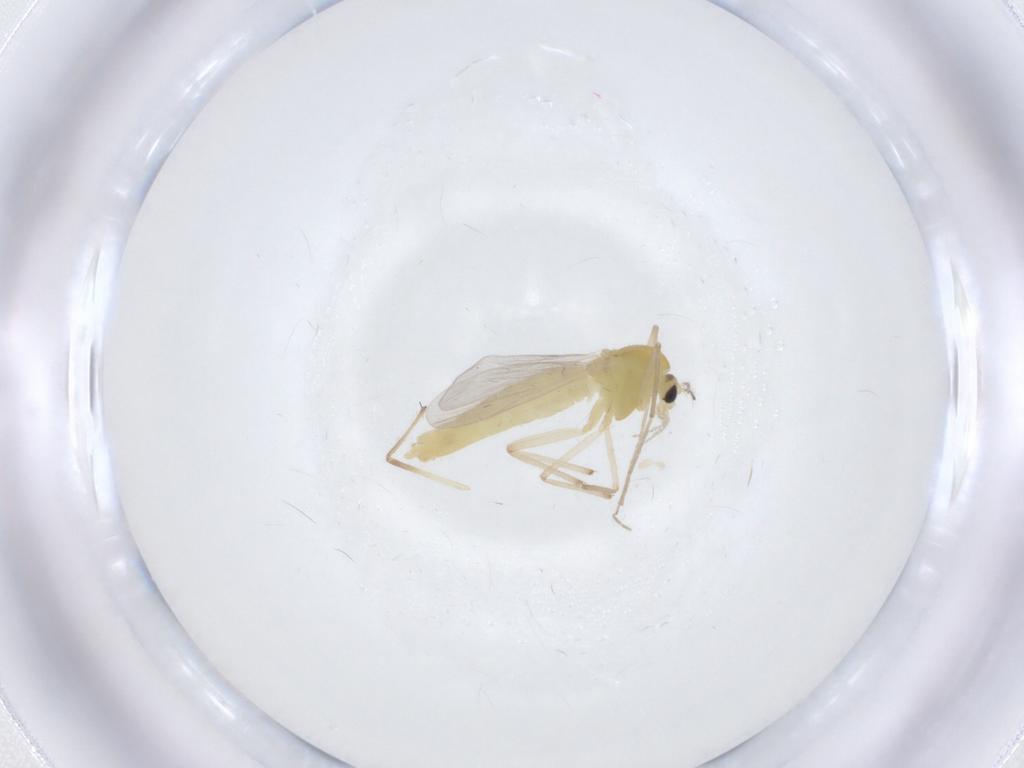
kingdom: Animalia
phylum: Arthropoda
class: Insecta
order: Diptera
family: Chironomidae
